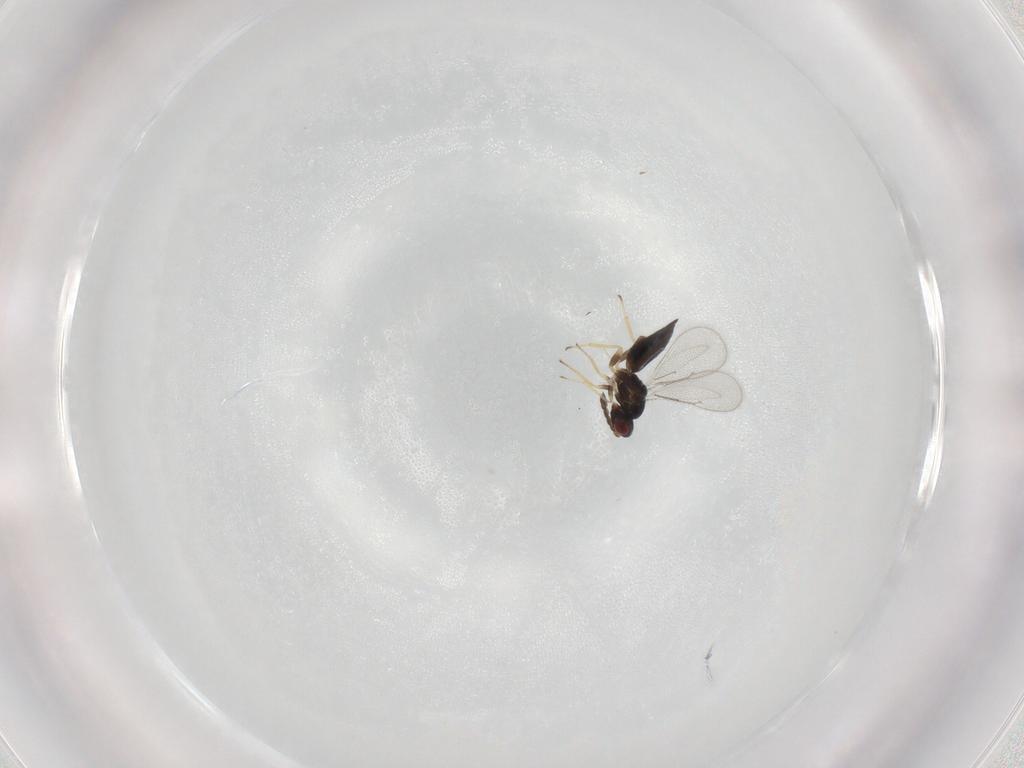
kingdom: Animalia
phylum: Arthropoda
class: Insecta
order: Hymenoptera
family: Eulophidae
